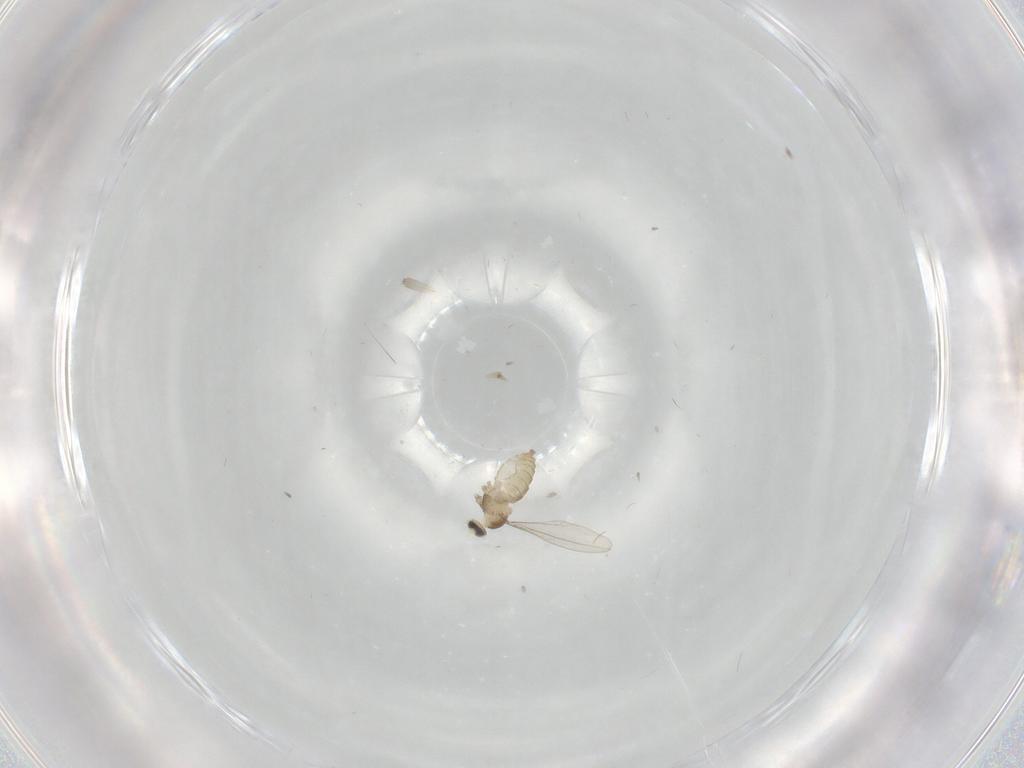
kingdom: Animalia
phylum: Arthropoda
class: Insecta
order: Diptera
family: Cecidomyiidae
